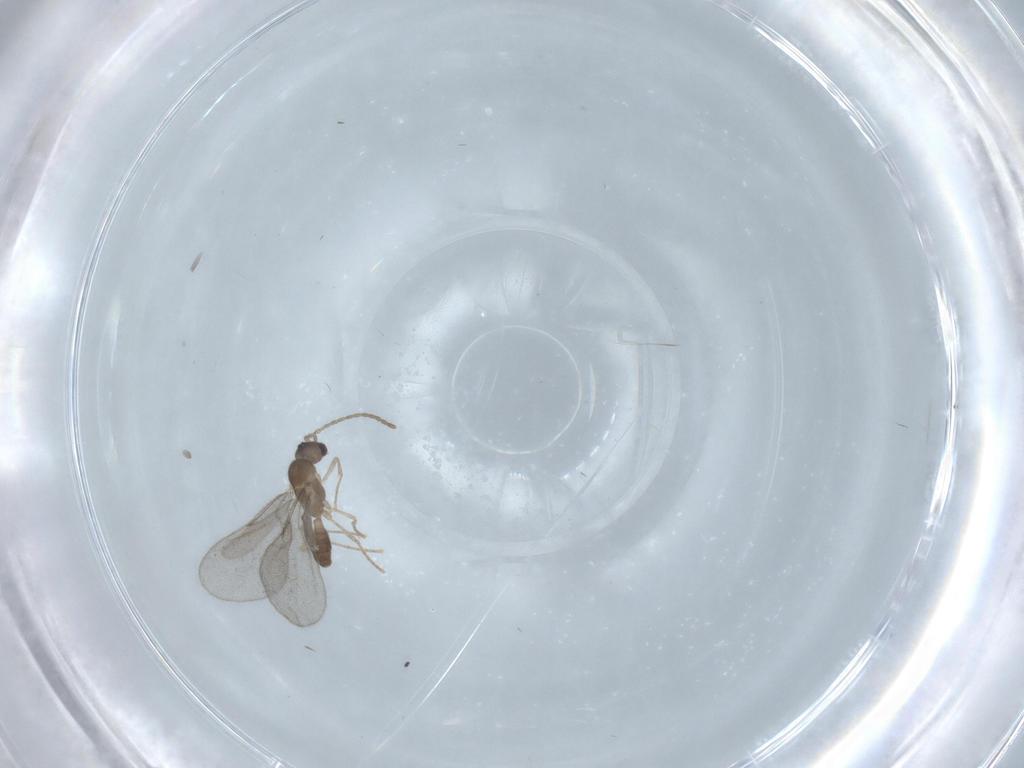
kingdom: Animalia
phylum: Arthropoda
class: Insecta
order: Hymenoptera
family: Formicidae
